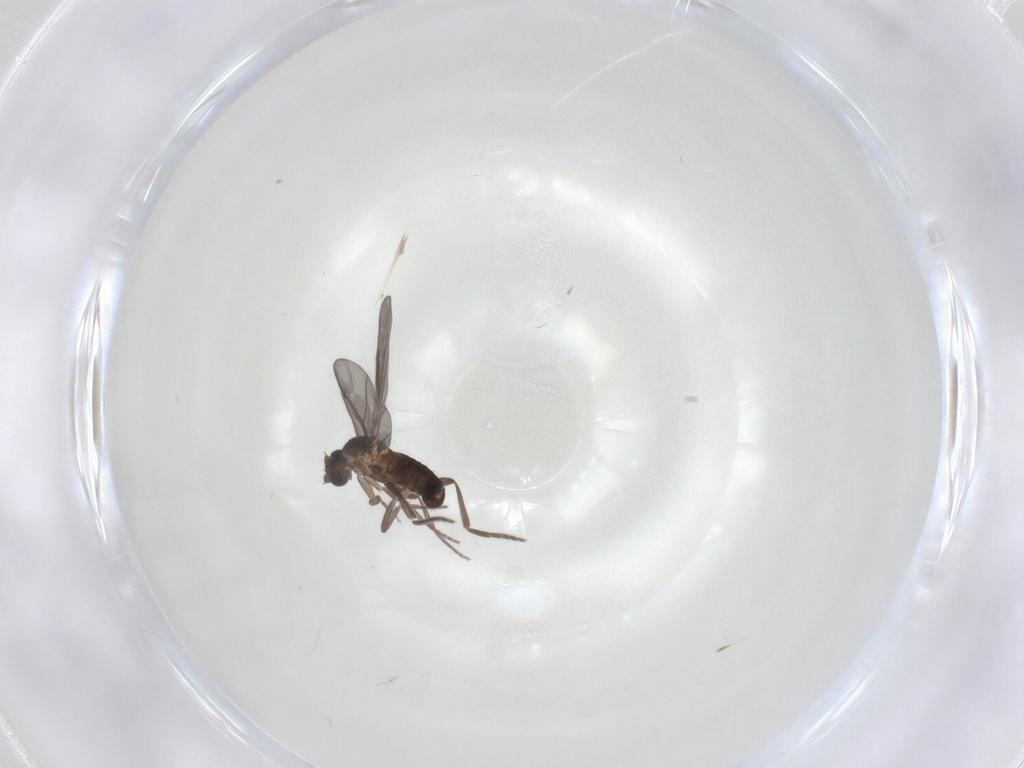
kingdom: Animalia
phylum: Arthropoda
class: Insecta
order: Diptera
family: Phoridae
